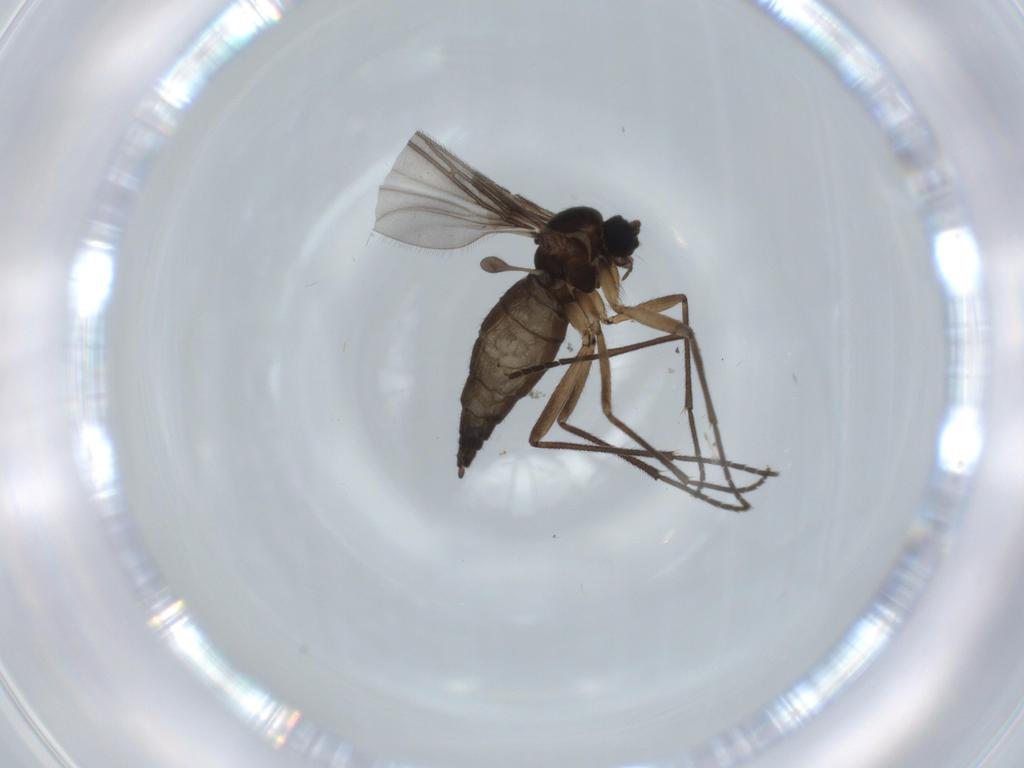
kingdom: Animalia
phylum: Arthropoda
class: Insecta
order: Diptera
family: Sciaridae
